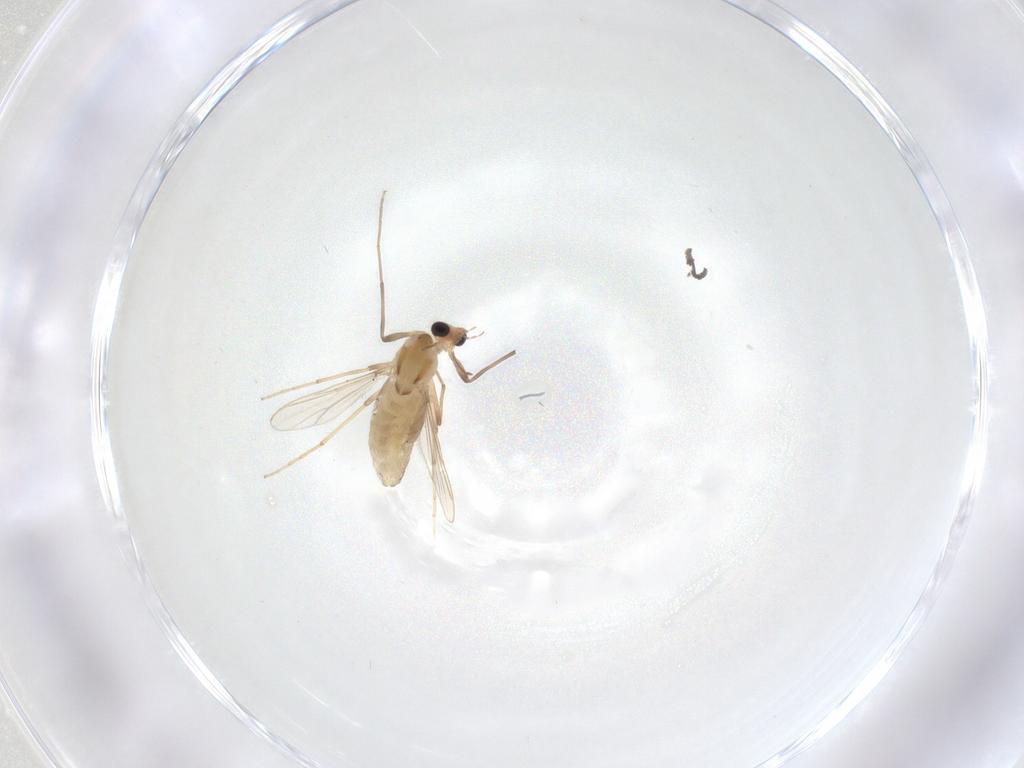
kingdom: Animalia
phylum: Arthropoda
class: Insecta
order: Diptera
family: Chironomidae
